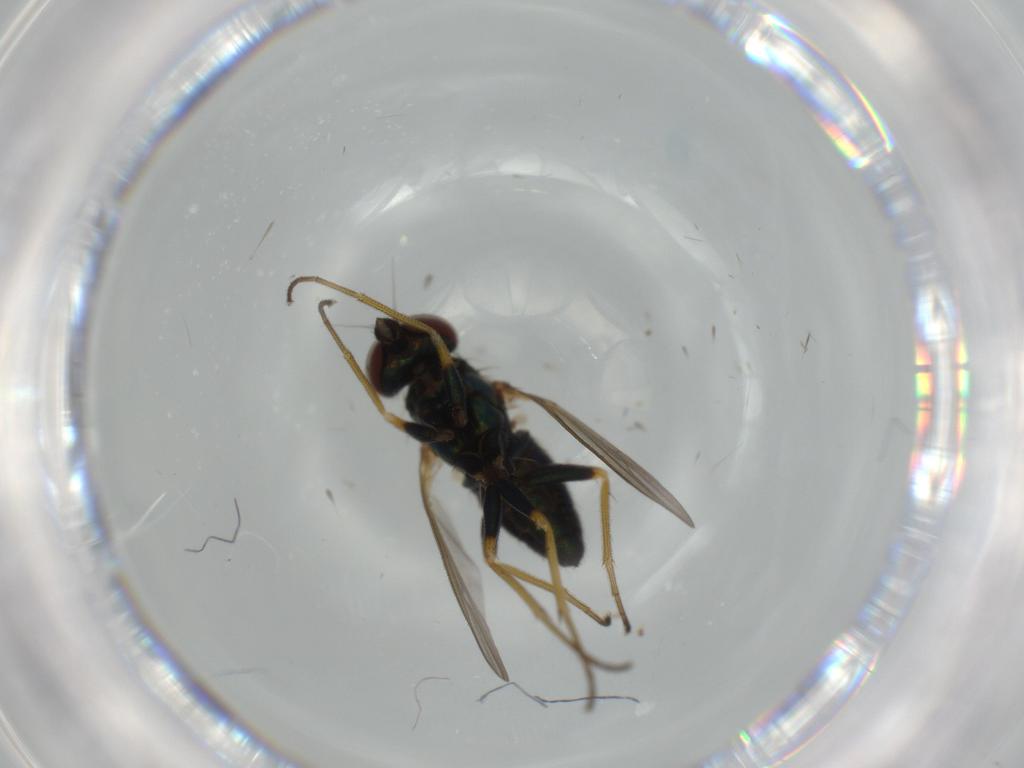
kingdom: Animalia
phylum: Arthropoda
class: Insecta
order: Diptera
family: Dolichopodidae
